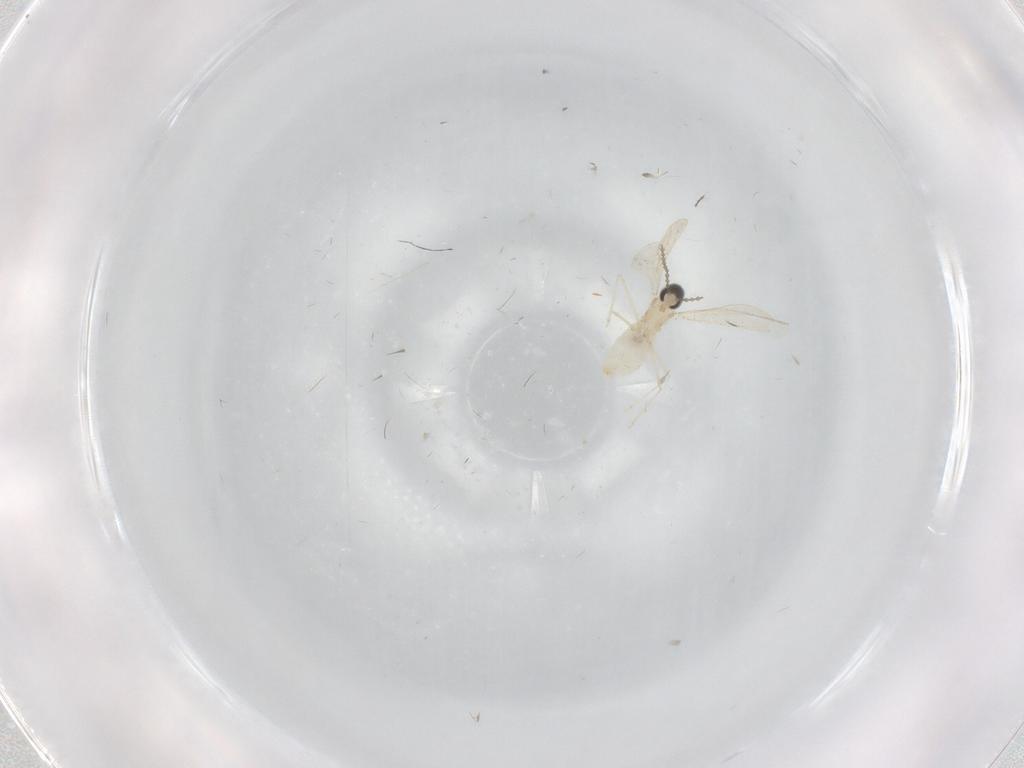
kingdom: Animalia
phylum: Arthropoda
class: Insecta
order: Diptera
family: Cecidomyiidae
